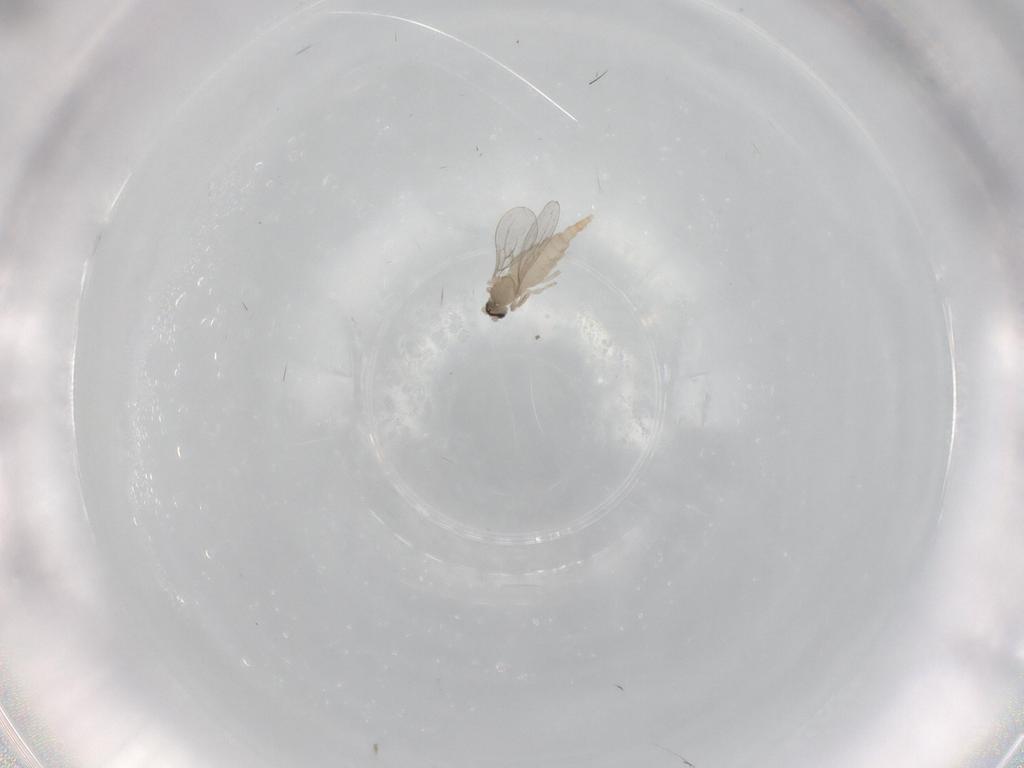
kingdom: Animalia
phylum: Arthropoda
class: Insecta
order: Diptera
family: Cecidomyiidae
